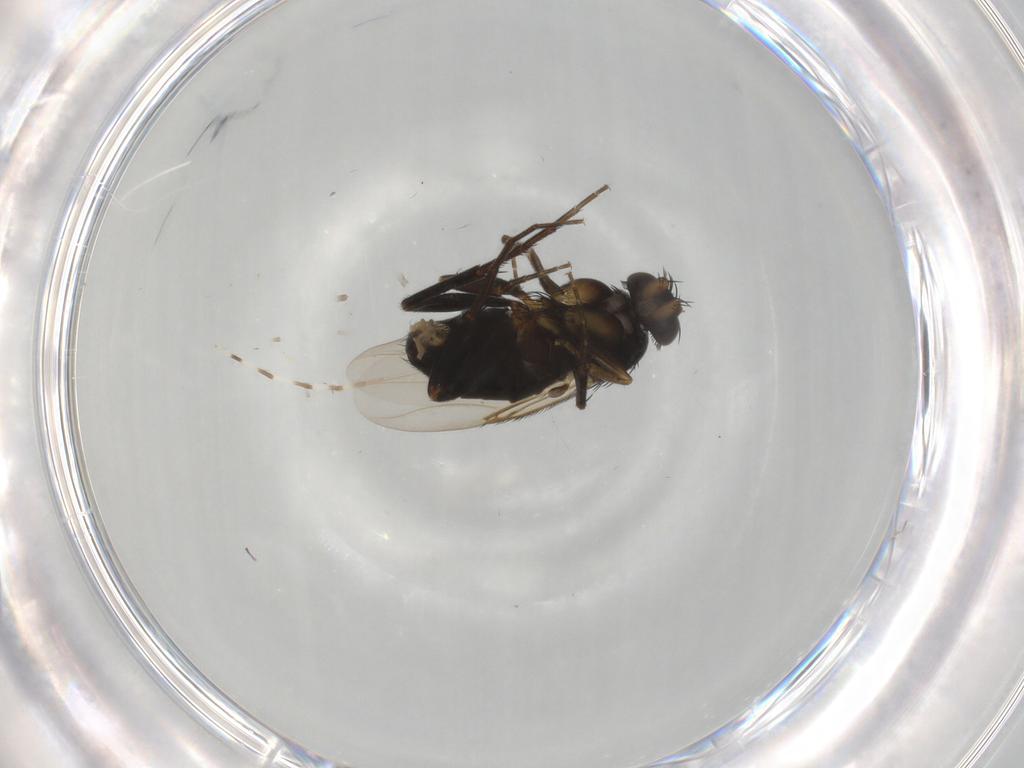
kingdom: Animalia
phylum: Arthropoda
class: Insecta
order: Diptera
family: Phoridae
